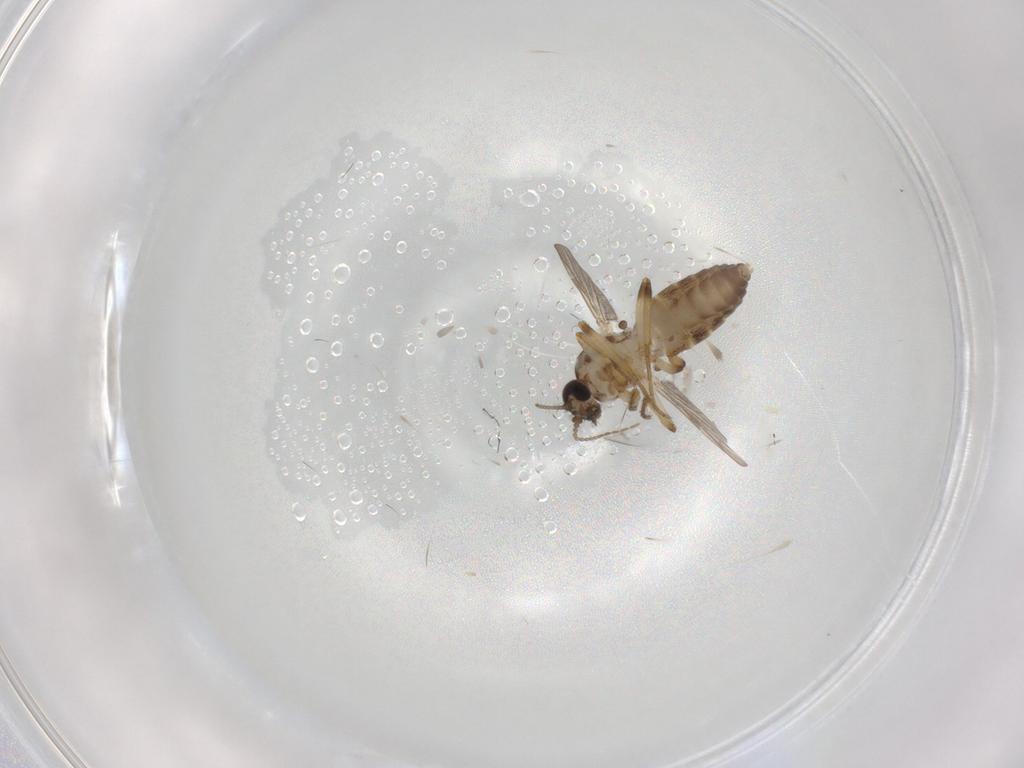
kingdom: Animalia
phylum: Arthropoda
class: Insecta
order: Diptera
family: Ceratopogonidae
